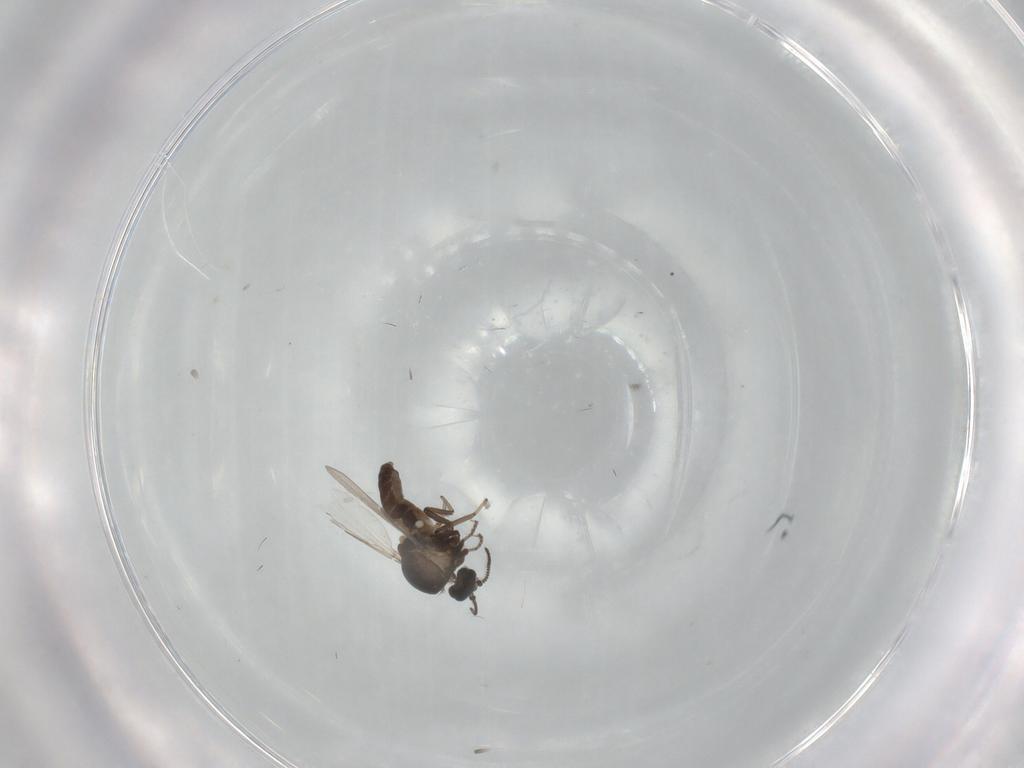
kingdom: Animalia
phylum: Arthropoda
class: Insecta
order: Diptera
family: Ceratopogonidae
